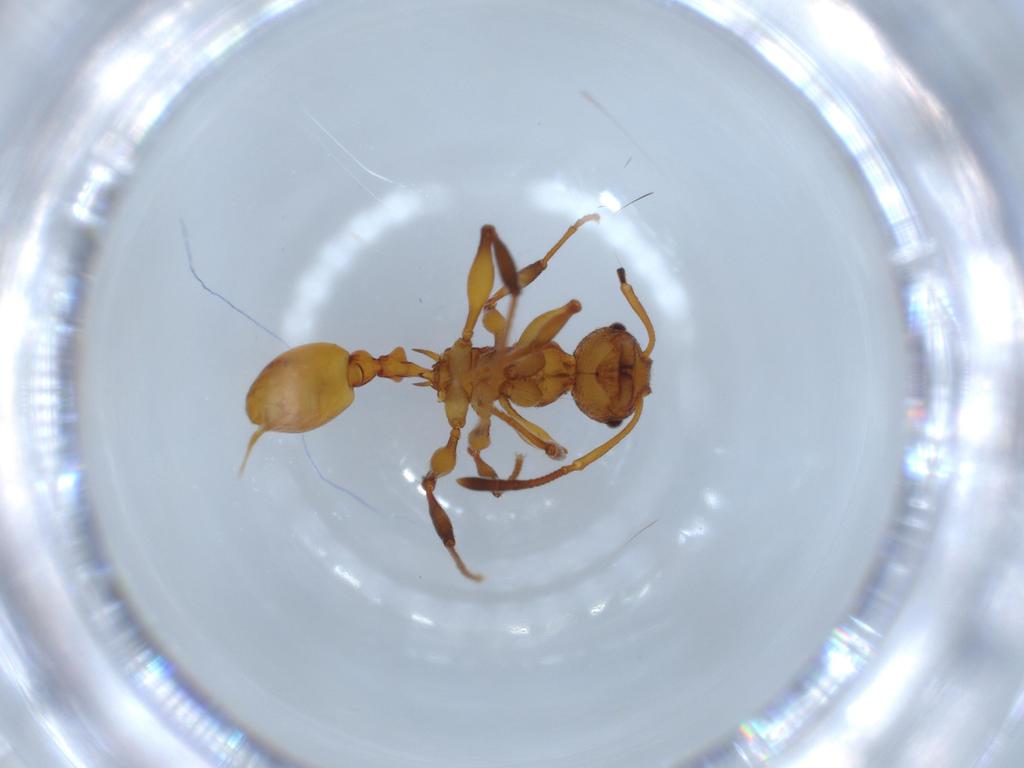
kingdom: Animalia
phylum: Arthropoda
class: Insecta
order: Hymenoptera
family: Formicidae
